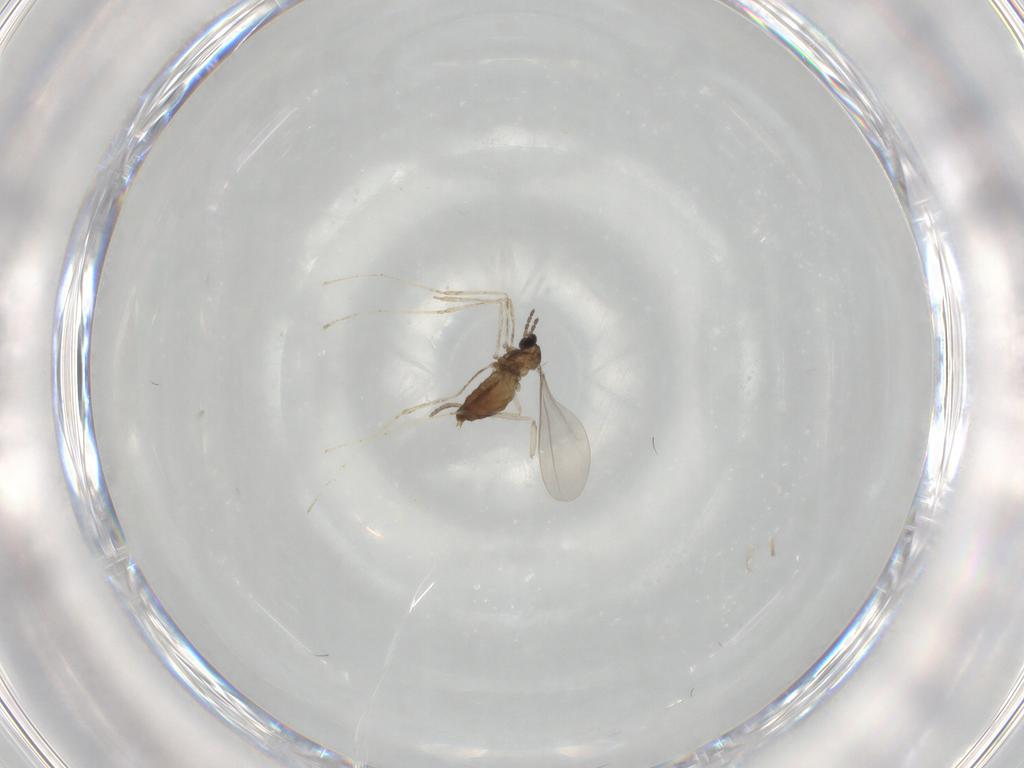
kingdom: Animalia
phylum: Arthropoda
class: Insecta
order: Diptera
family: Chironomidae
